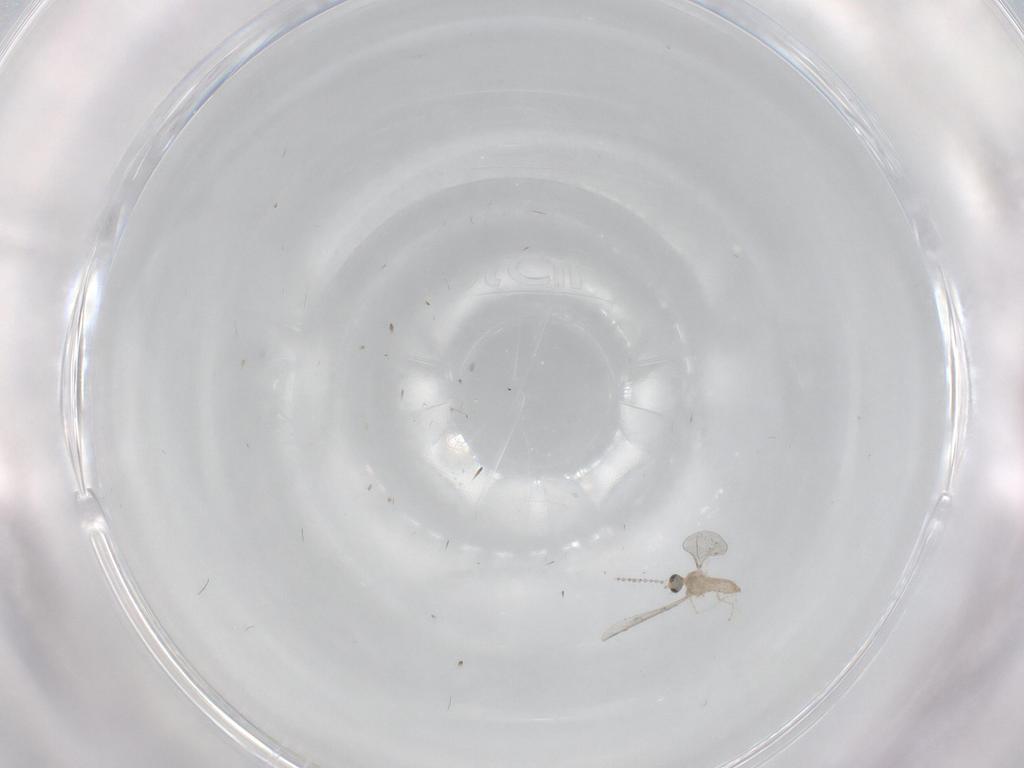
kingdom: Animalia
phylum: Arthropoda
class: Insecta
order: Diptera
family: Cecidomyiidae
